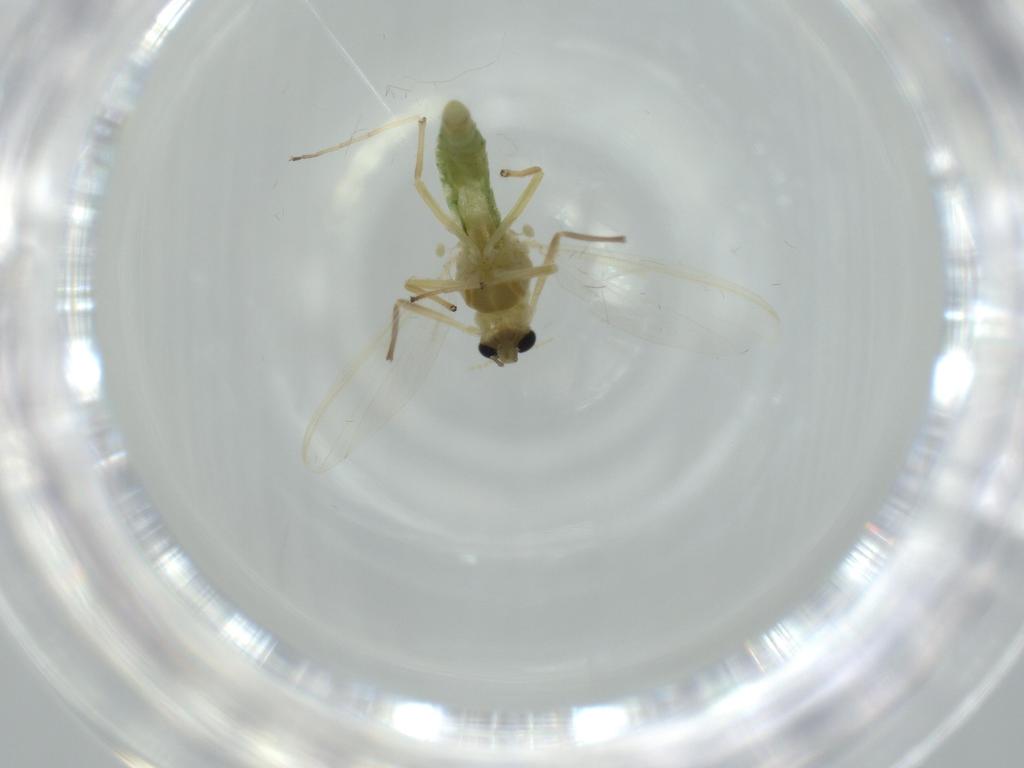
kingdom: Animalia
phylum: Arthropoda
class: Insecta
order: Diptera
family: Chironomidae
